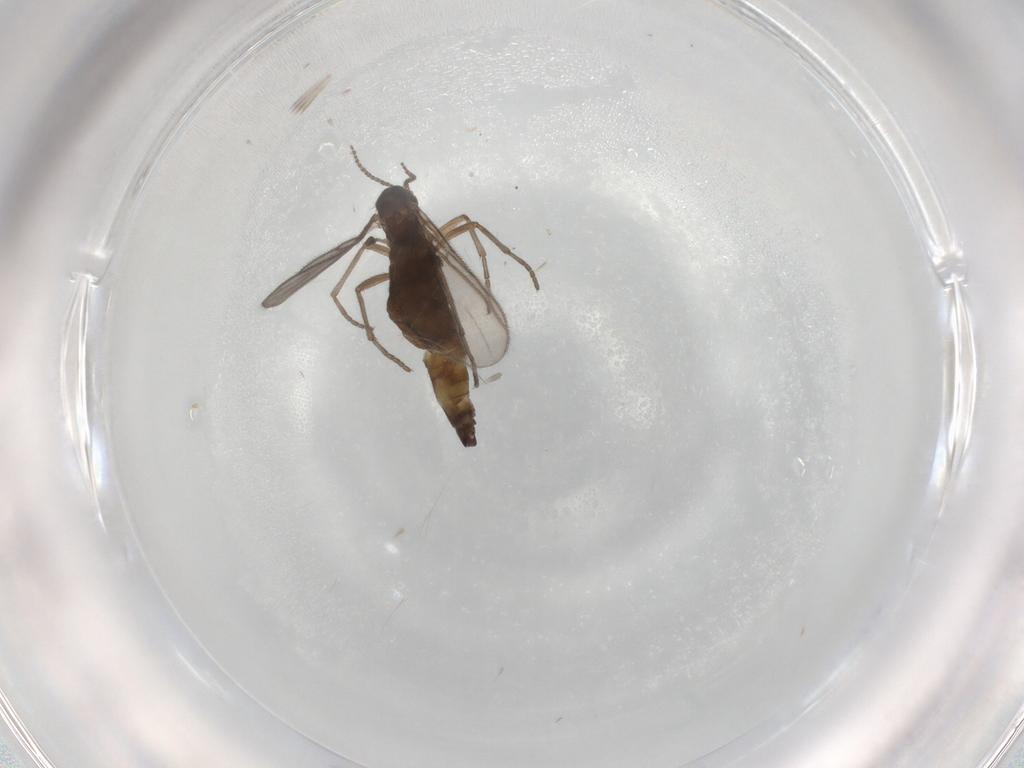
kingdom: Animalia
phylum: Arthropoda
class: Insecta
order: Diptera
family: Sciaridae
